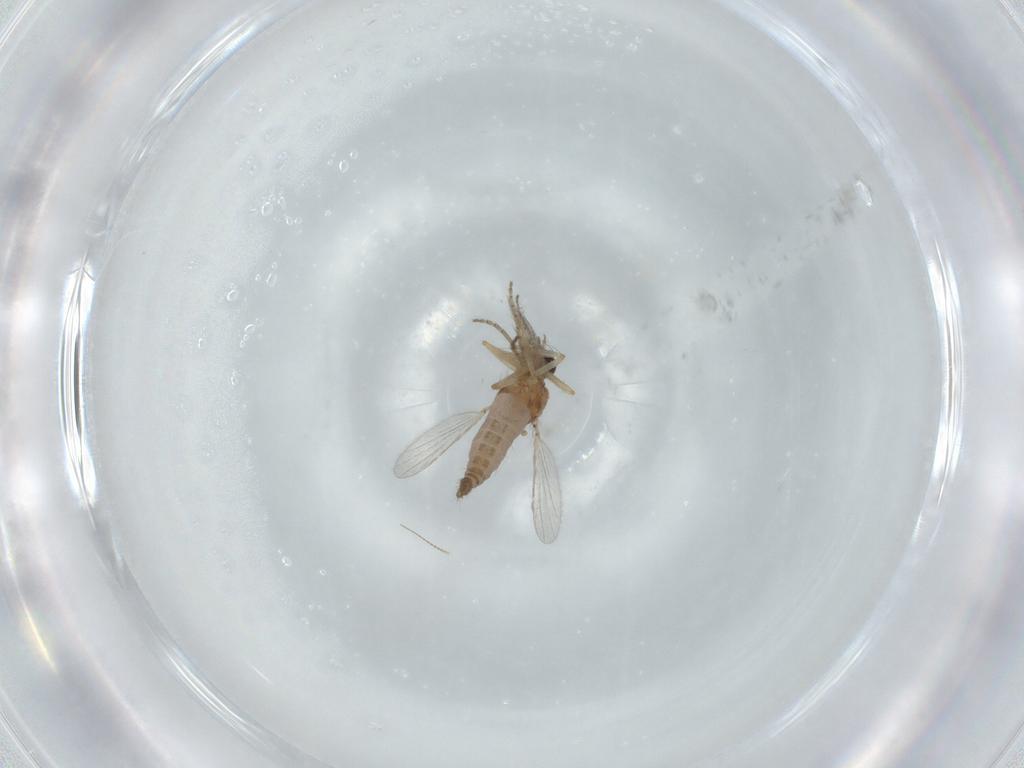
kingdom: Animalia
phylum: Arthropoda
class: Insecta
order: Diptera
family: Ceratopogonidae
